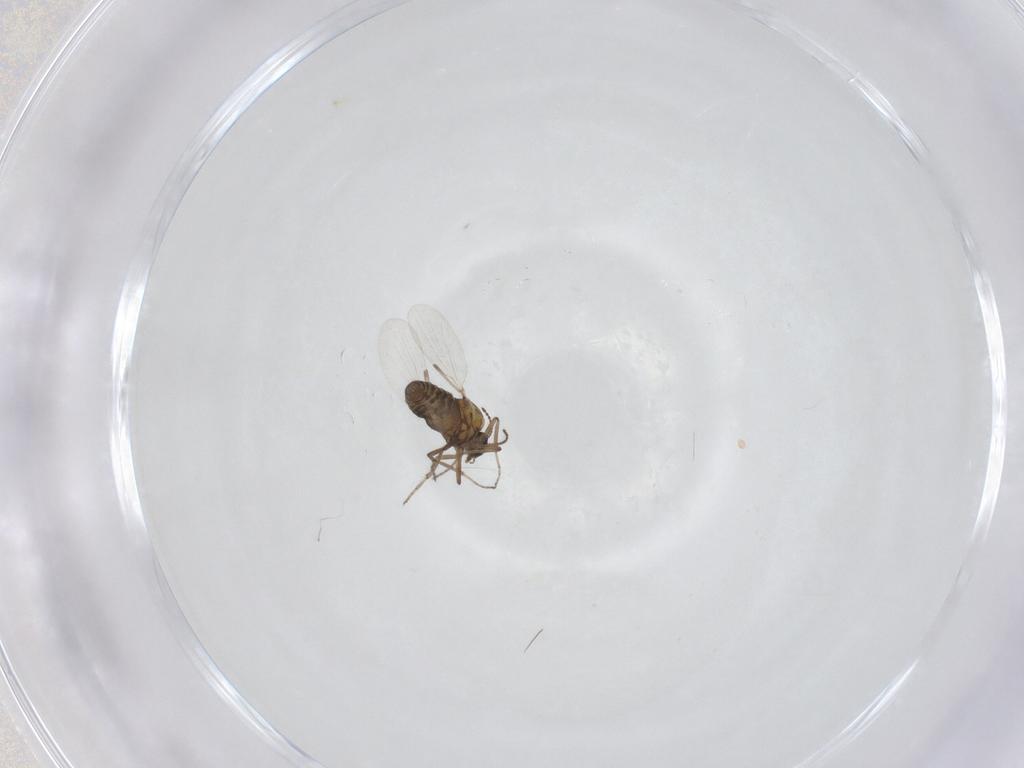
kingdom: Animalia
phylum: Arthropoda
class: Insecta
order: Diptera
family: Ceratopogonidae
